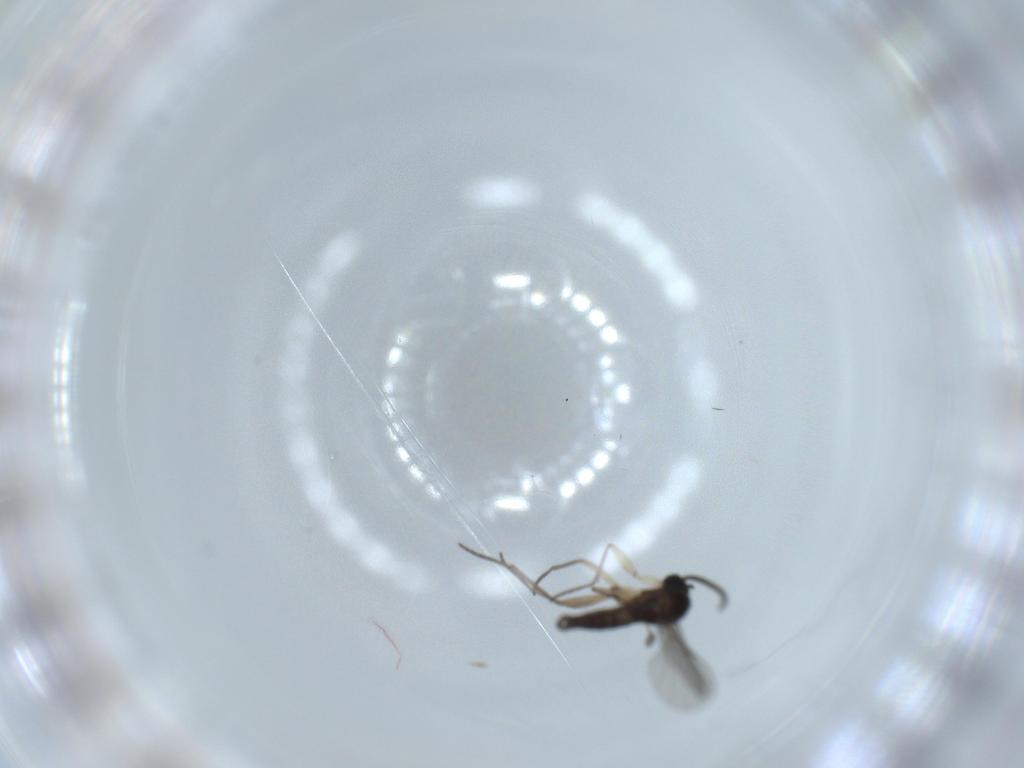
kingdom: Animalia
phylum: Arthropoda
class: Insecta
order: Diptera
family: Sciaridae
